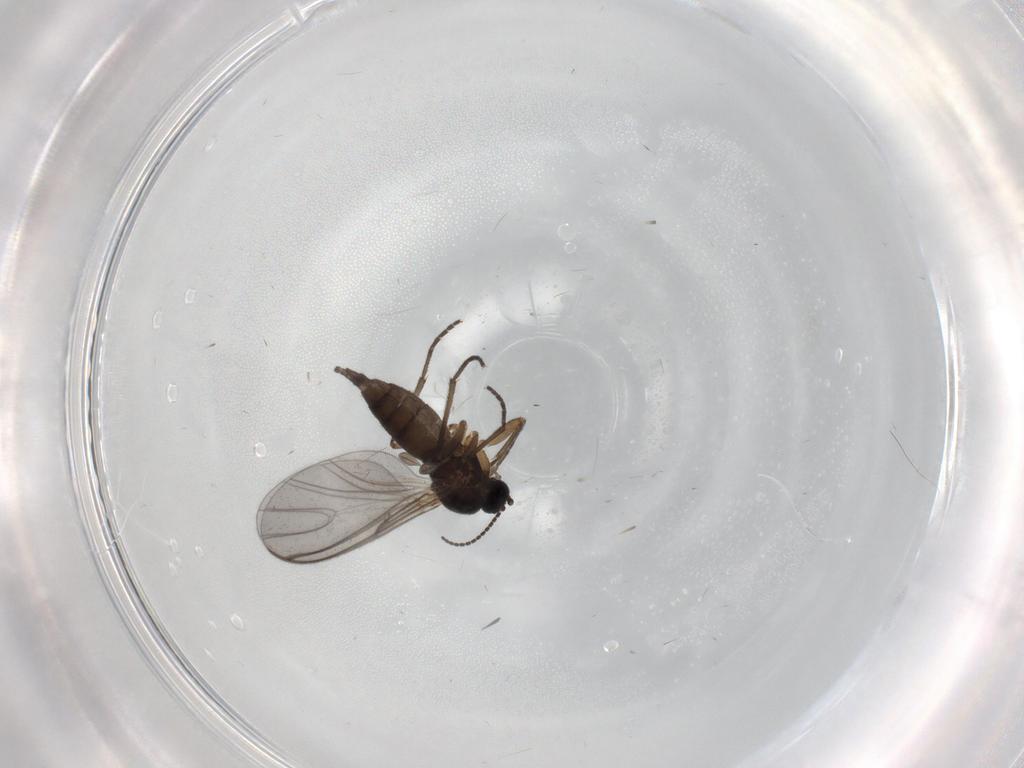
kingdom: Animalia
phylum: Arthropoda
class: Insecta
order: Diptera
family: Sciaridae
